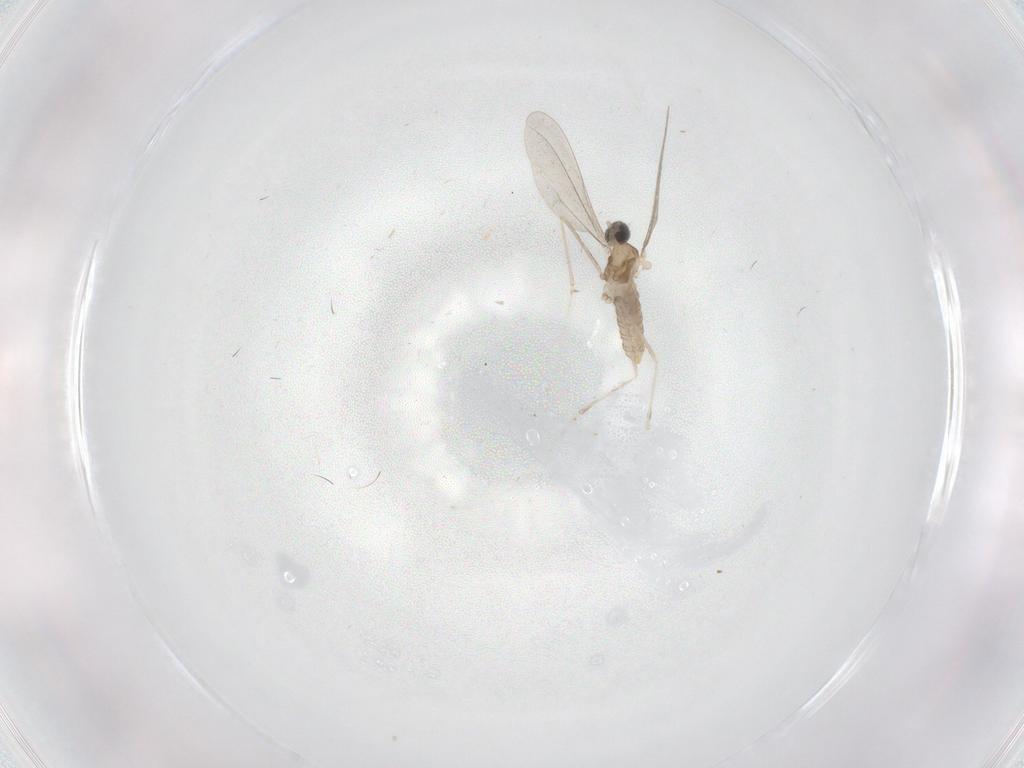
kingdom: Animalia
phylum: Arthropoda
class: Insecta
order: Diptera
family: Cecidomyiidae
